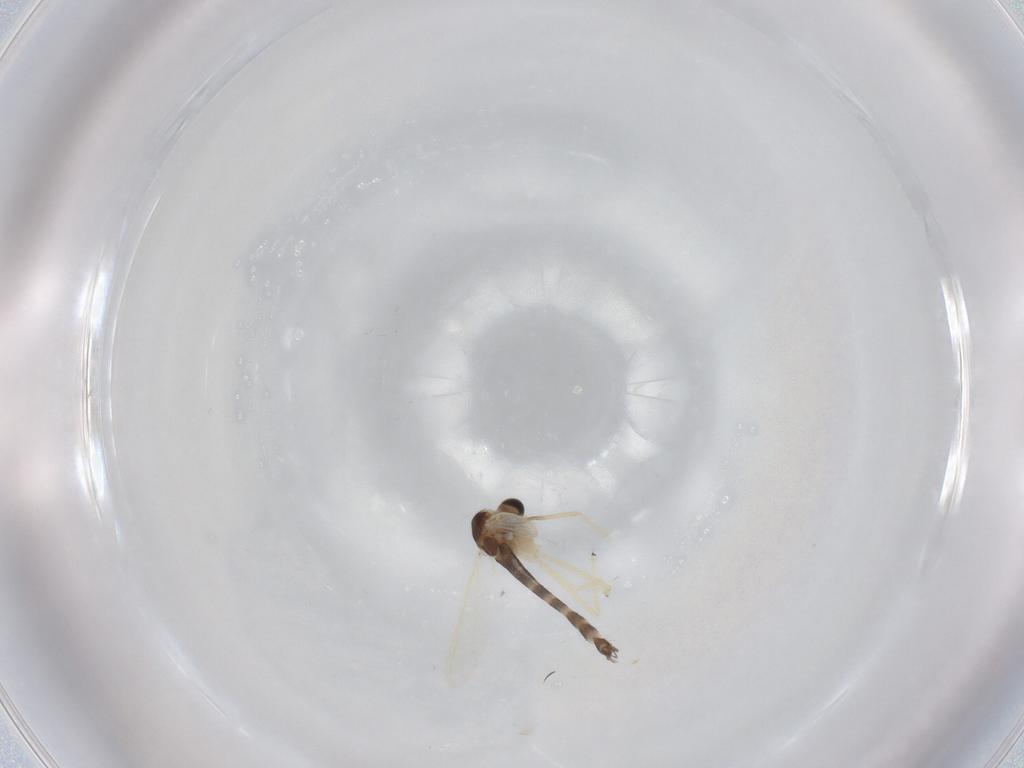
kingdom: Animalia
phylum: Arthropoda
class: Insecta
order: Diptera
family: Chironomidae
